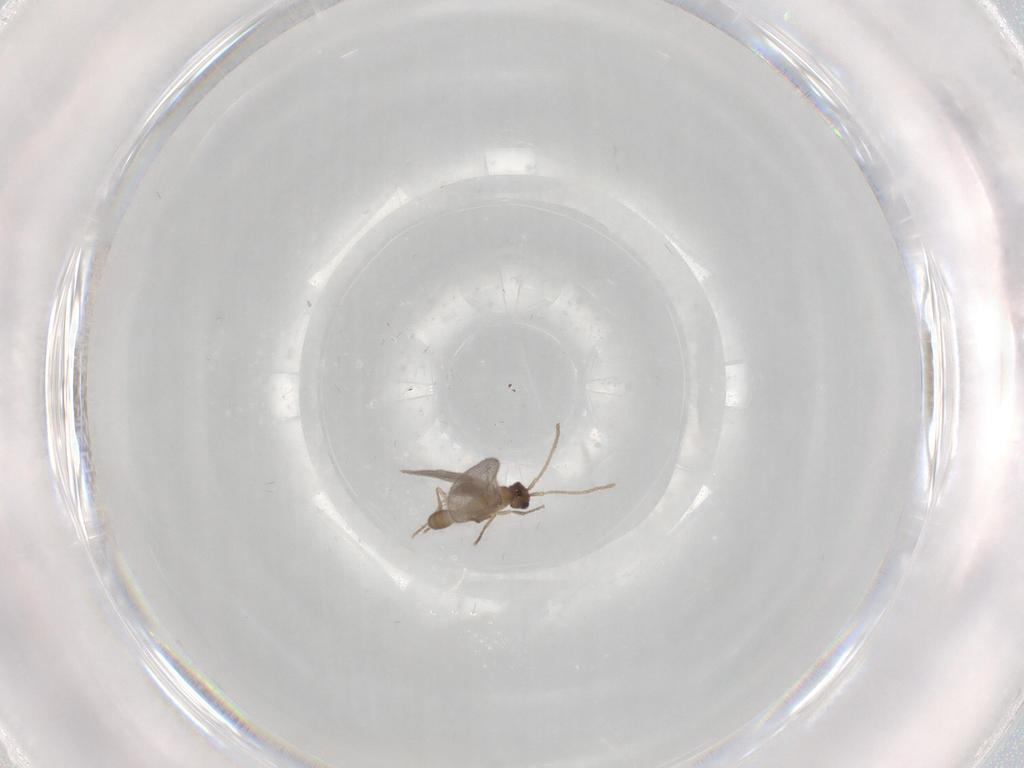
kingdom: Animalia
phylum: Arthropoda
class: Insecta
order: Hymenoptera
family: Formicidae
